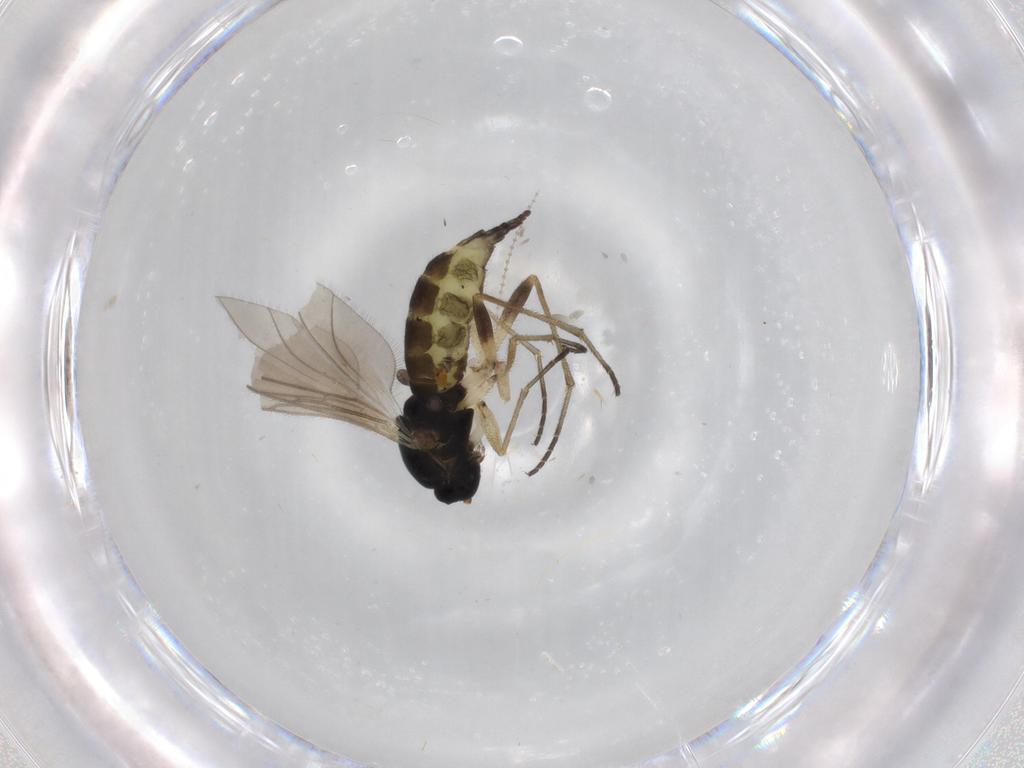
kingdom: Animalia
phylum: Arthropoda
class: Insecta
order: Diptera
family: Sciaridae
